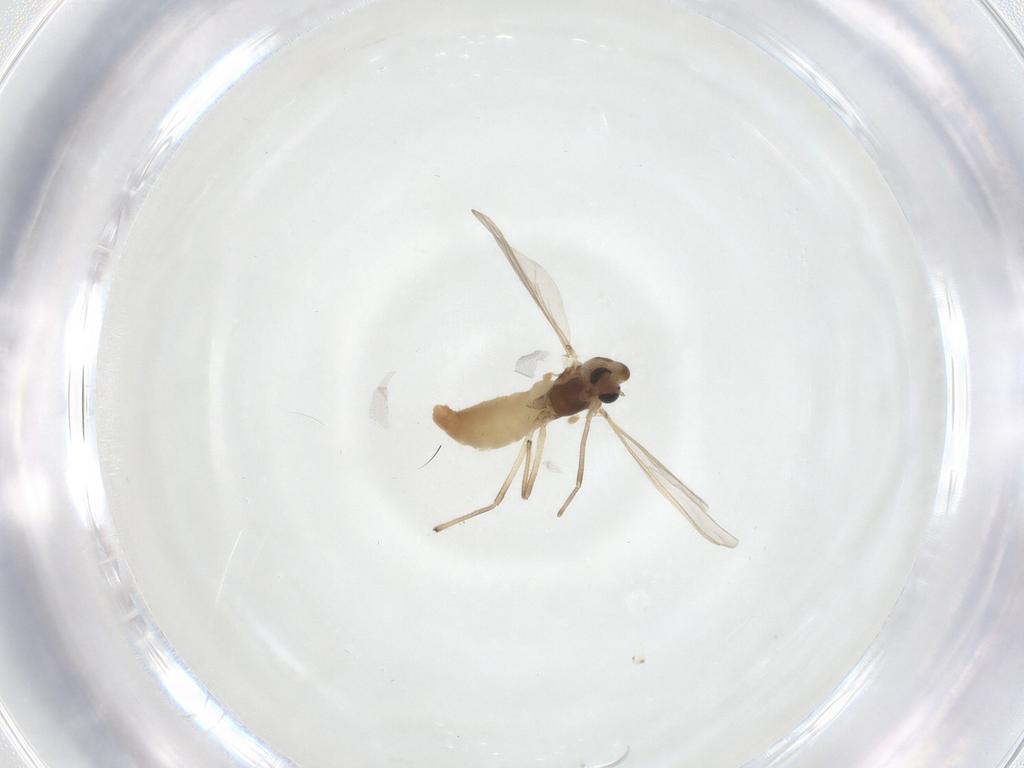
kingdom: Animalia
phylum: Arthropoda
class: Insecta
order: Diptera
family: Chironomidae
